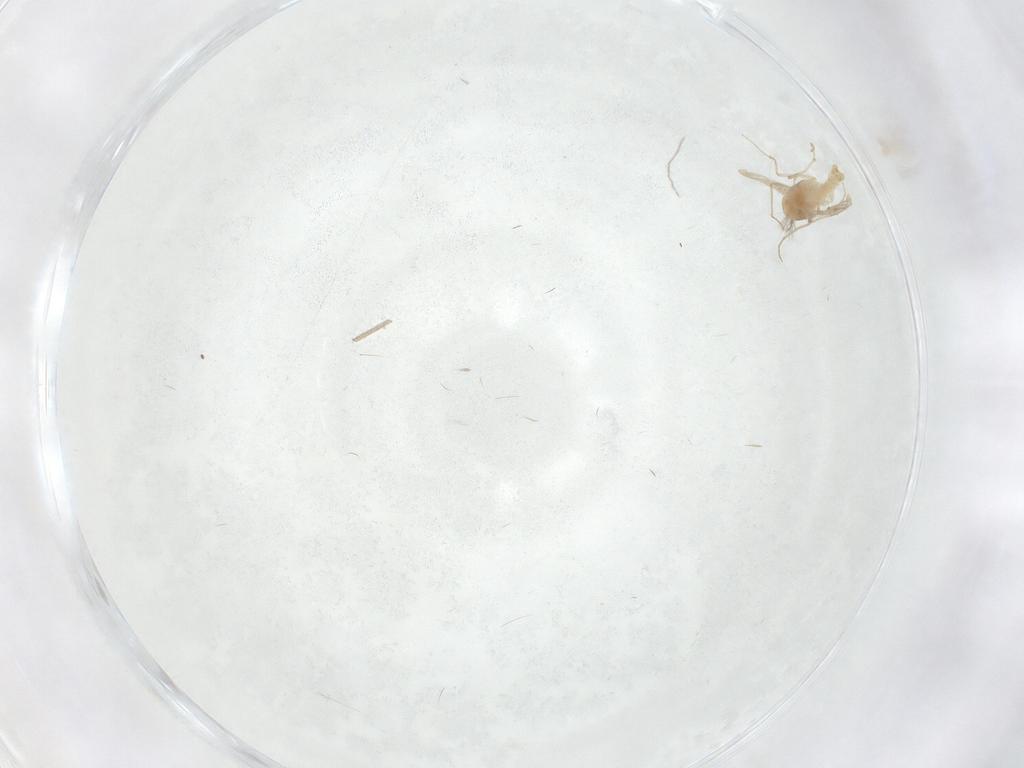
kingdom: Animalia
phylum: Arthropoda
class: Insecta
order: Diptera
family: Chironomidae
